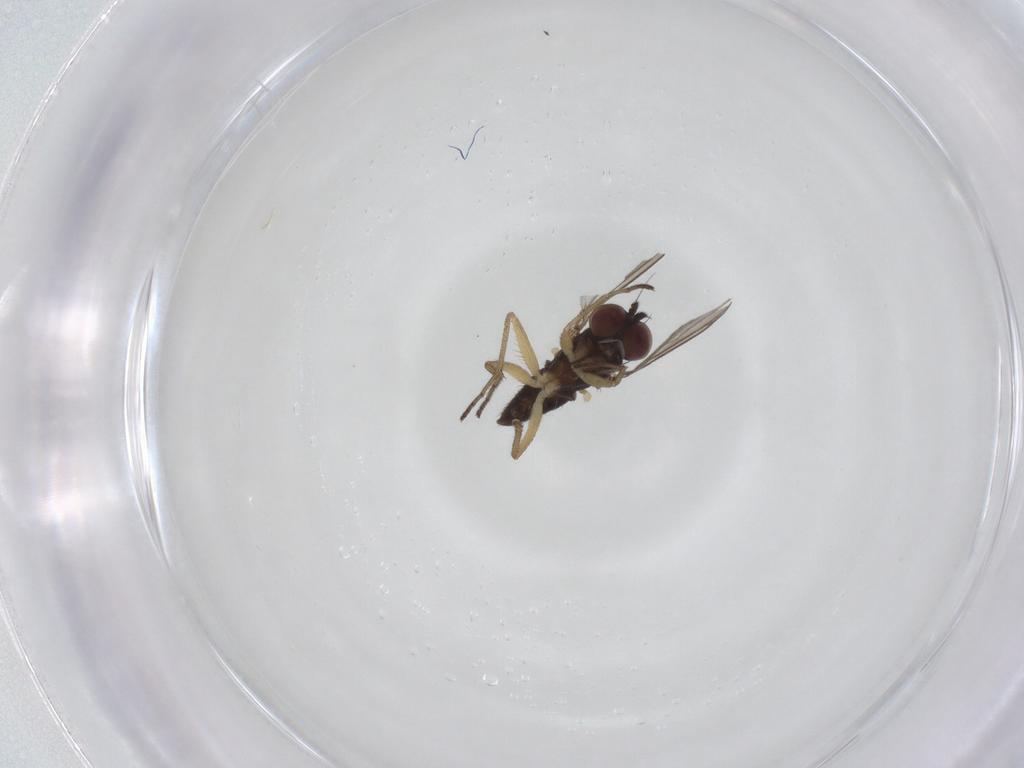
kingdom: Animalia
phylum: Arthropoda
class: Insecta
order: Diptera
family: Dolichopodidae
